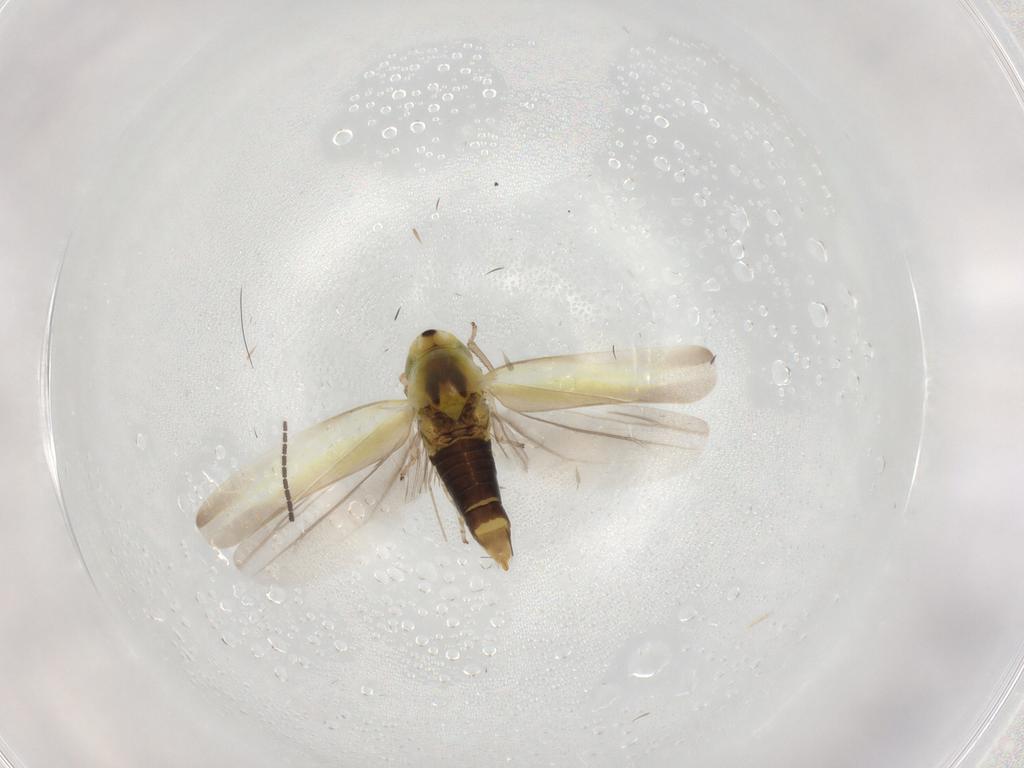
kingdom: Animalia
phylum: Arthropoda
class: Insecta
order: Hemiptera
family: Cicadellidae
